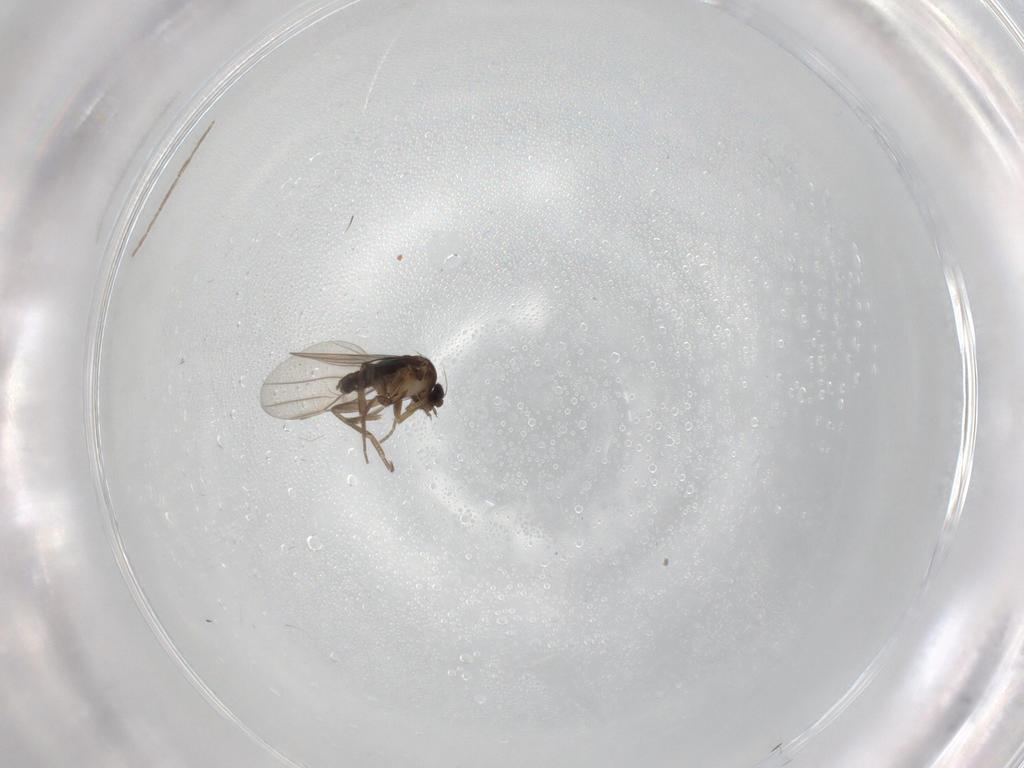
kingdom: Animalia
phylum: Arthropoda
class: Insecta
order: Diptera
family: Phoridae
